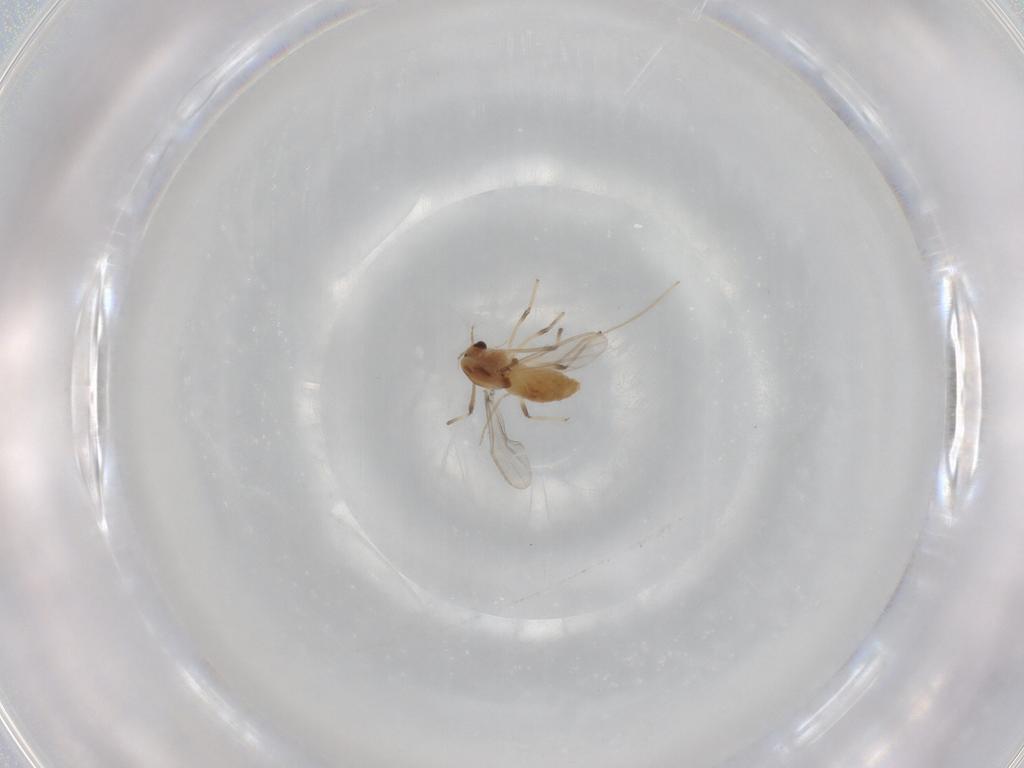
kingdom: Animalia
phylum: Arthropoda
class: Insecta
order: Diptera
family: Chironomidae
